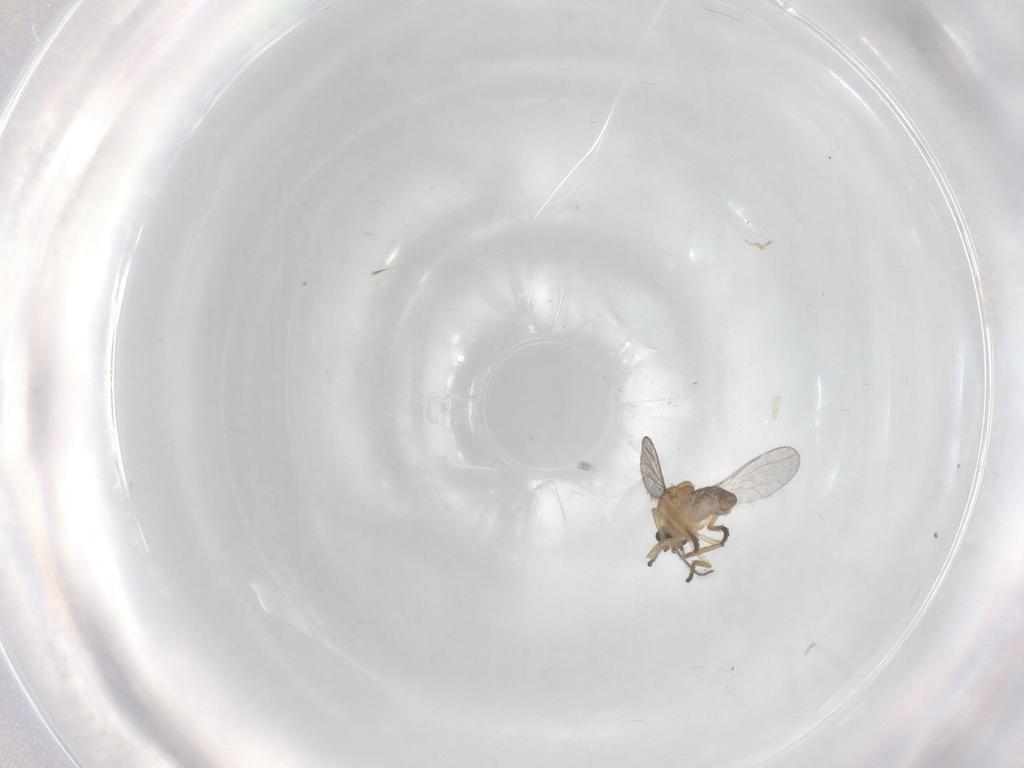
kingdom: Animalia
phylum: Arthropoda
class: Insecta
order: Diptera
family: Cecidomyiidae
